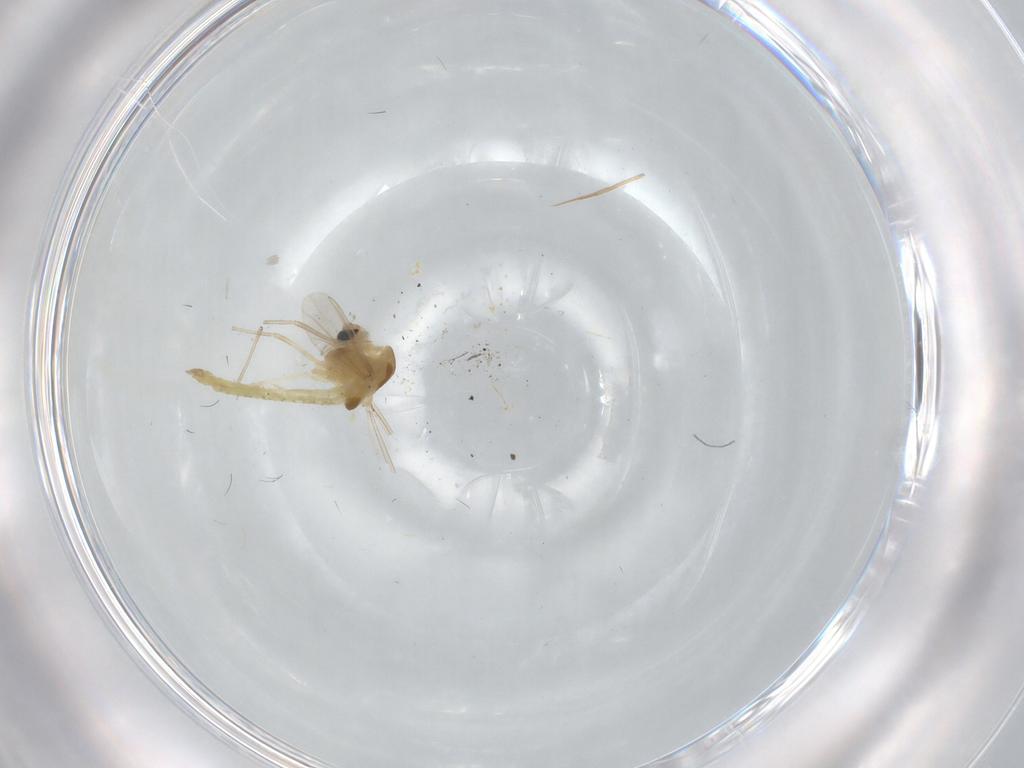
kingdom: Animalia
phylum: Arthropoda
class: Insecta
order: Diptera
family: Chironomidae
